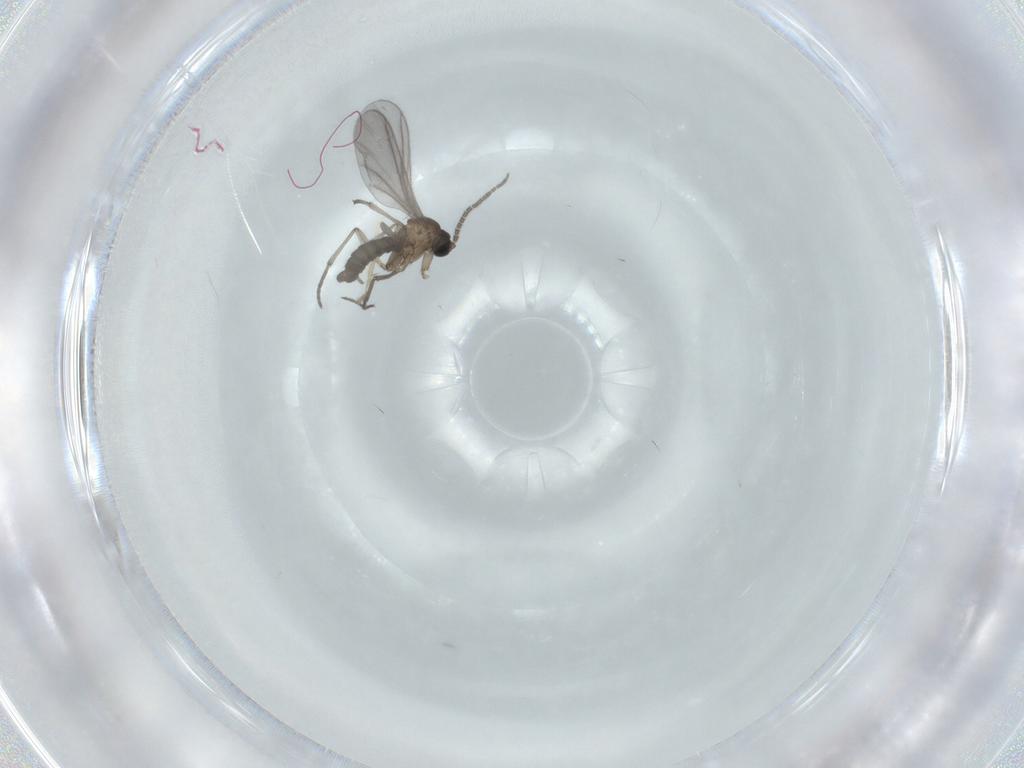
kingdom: Animalia
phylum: Arthropoda
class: Insecta
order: Diptera
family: Sciaridae
